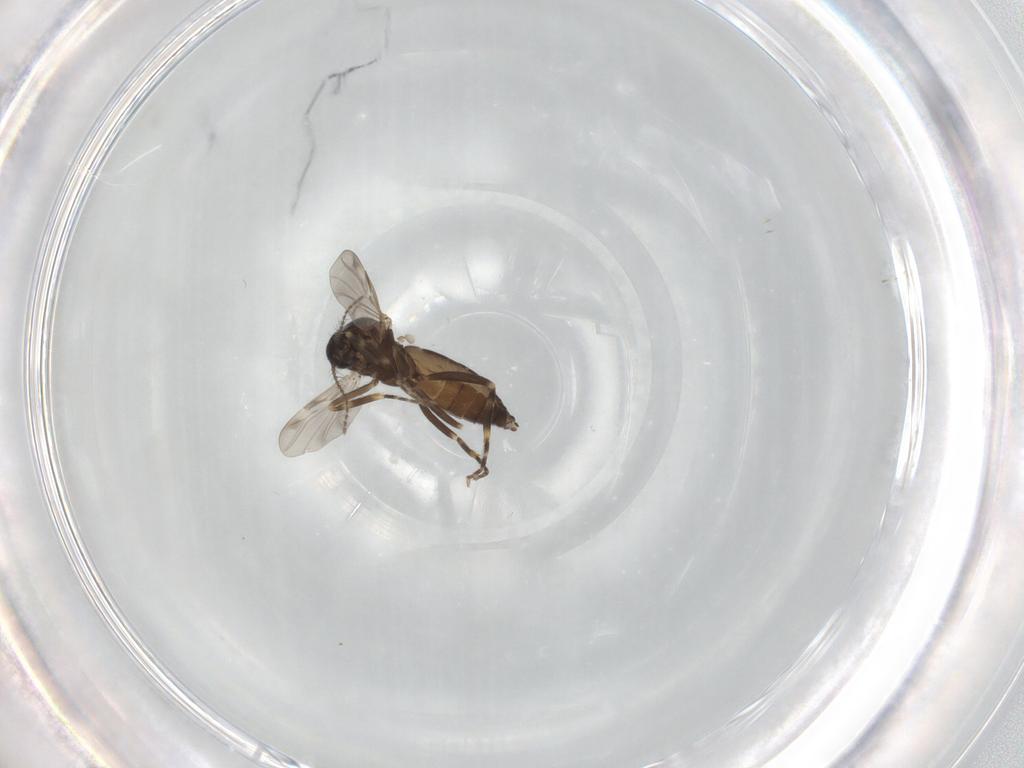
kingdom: Animalia
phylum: Arthropoda
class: Insecta
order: Diptera
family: Ceratopogonidae
